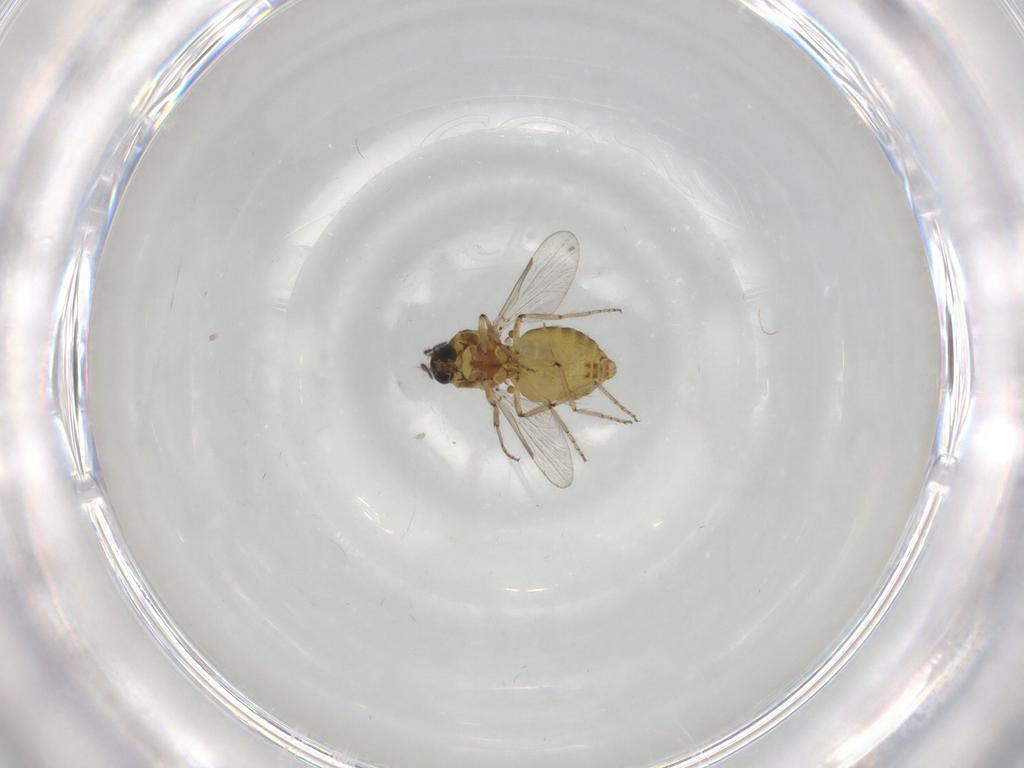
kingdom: Animalia
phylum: Arthropoda
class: Insecta
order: Diptera
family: Ceratopogonidae
